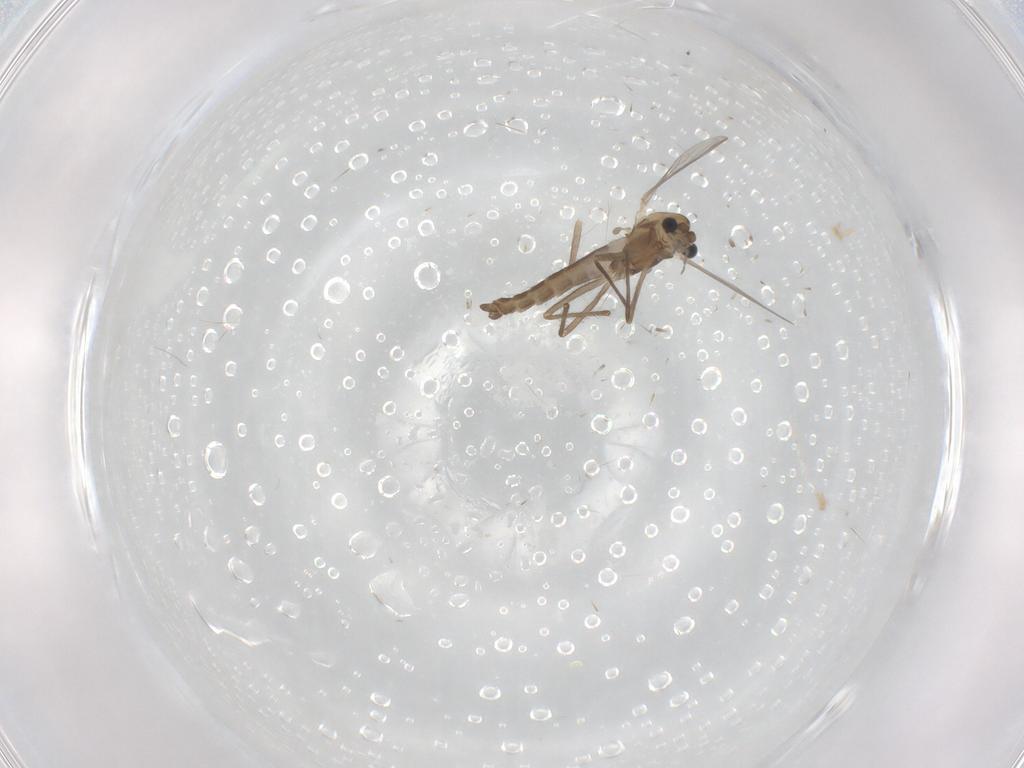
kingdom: Animalia
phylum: Arthropoda
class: Insecta
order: Diptera
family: Chironomidae
